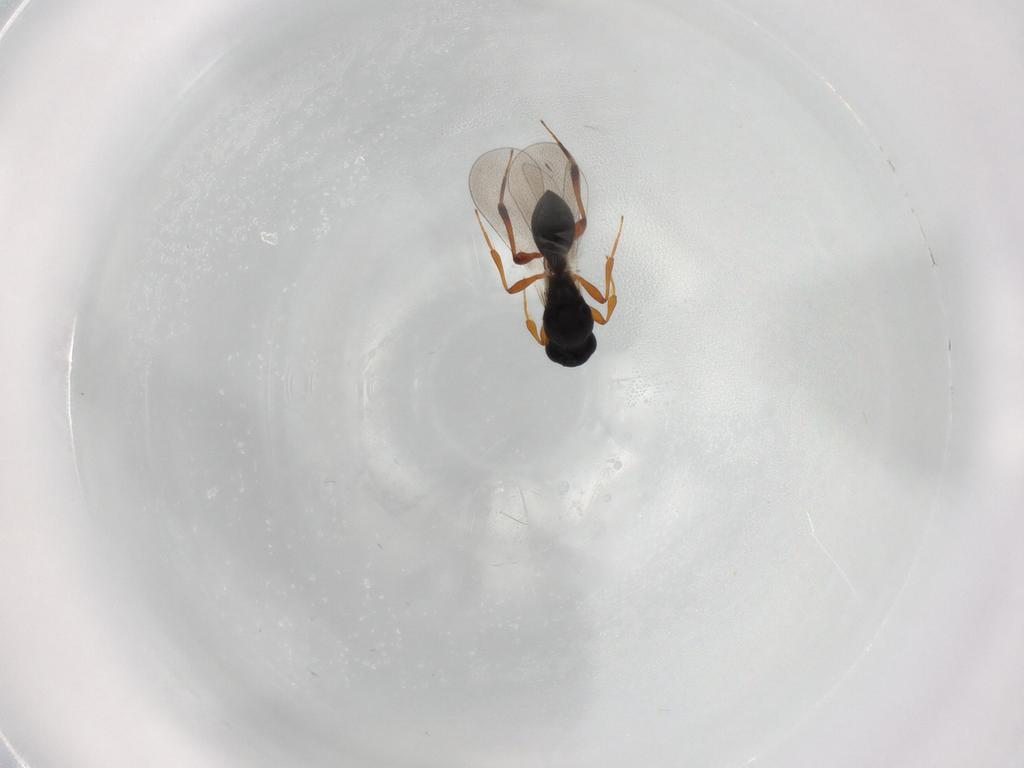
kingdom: Animalia
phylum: Arthropoda
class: Insecta
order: Hymenoptera
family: Platygastridae
